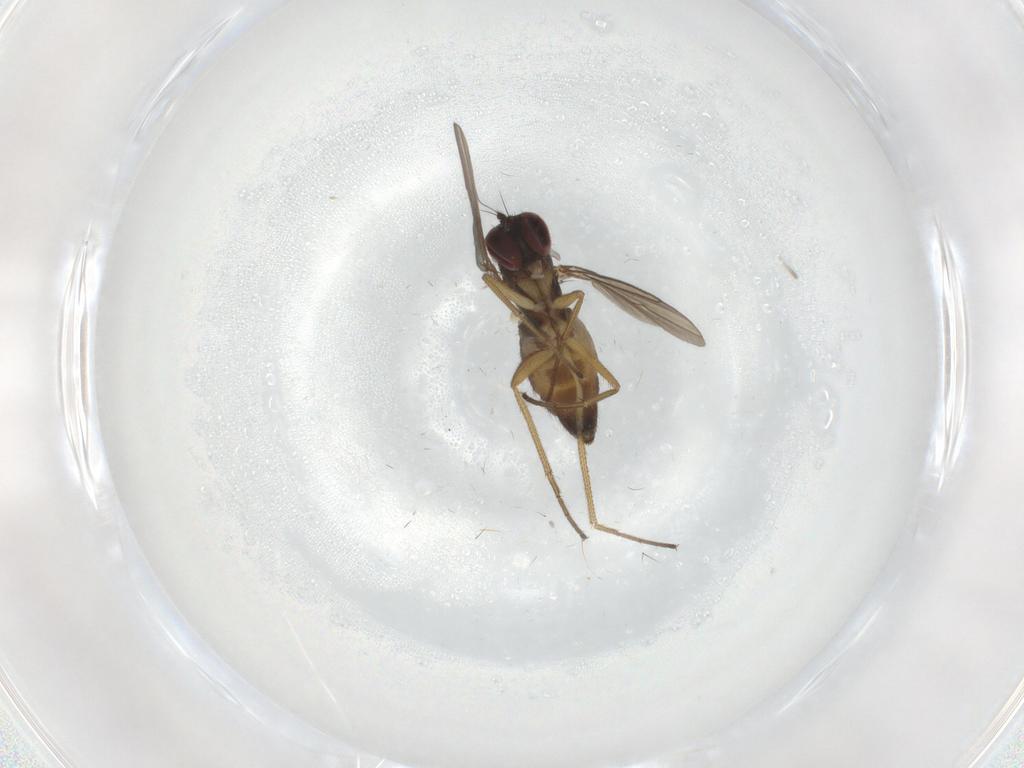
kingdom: Animalia
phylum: Arthropoda
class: Insecta
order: Diptera
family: Dolichopodidae
